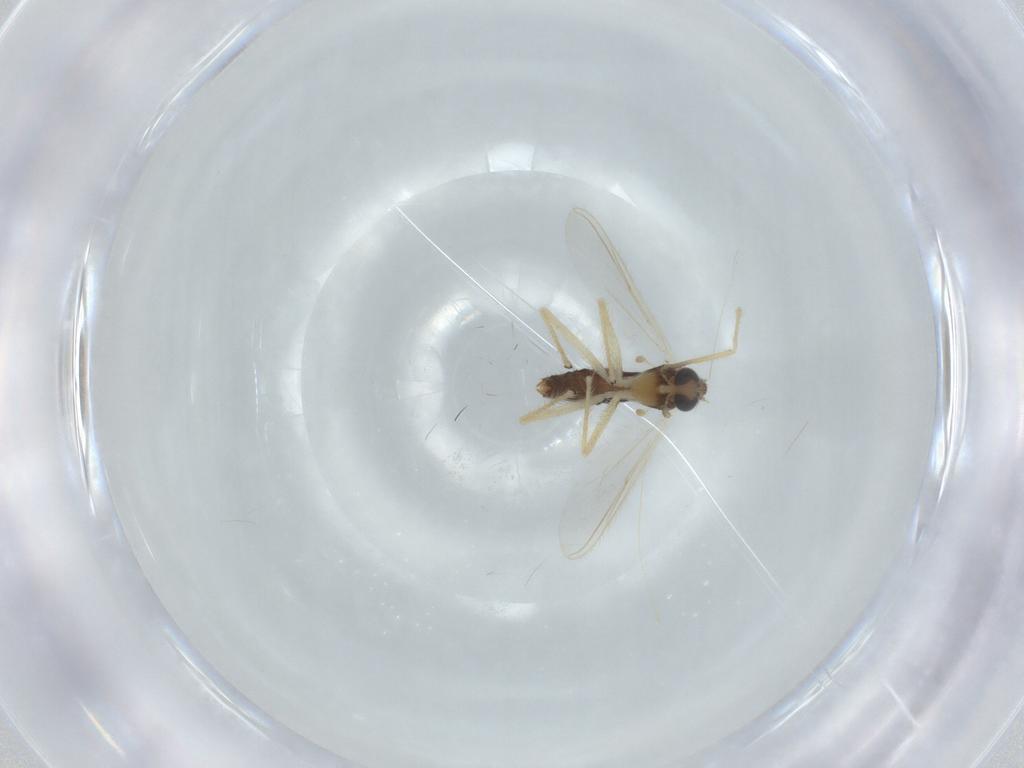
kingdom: Animalia
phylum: Arthropoda
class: Insecta
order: Diptera
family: Chironomidae
